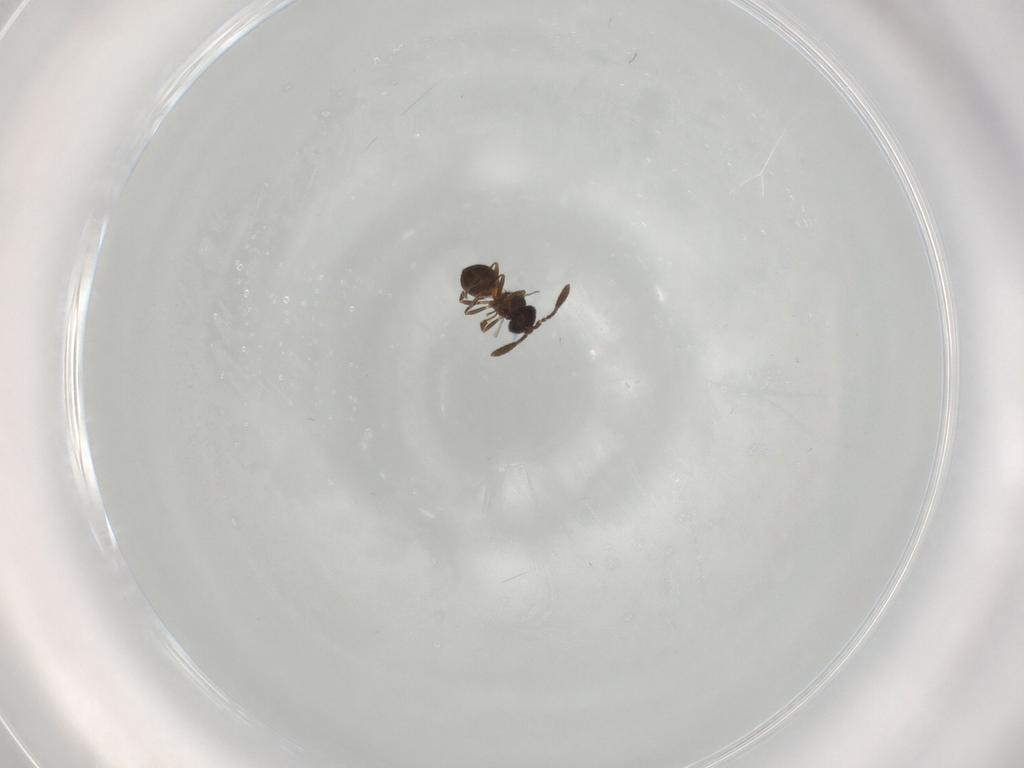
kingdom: Animalia
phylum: Arthropoda
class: Insecta
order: Hymenoptera
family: Scelionidae
